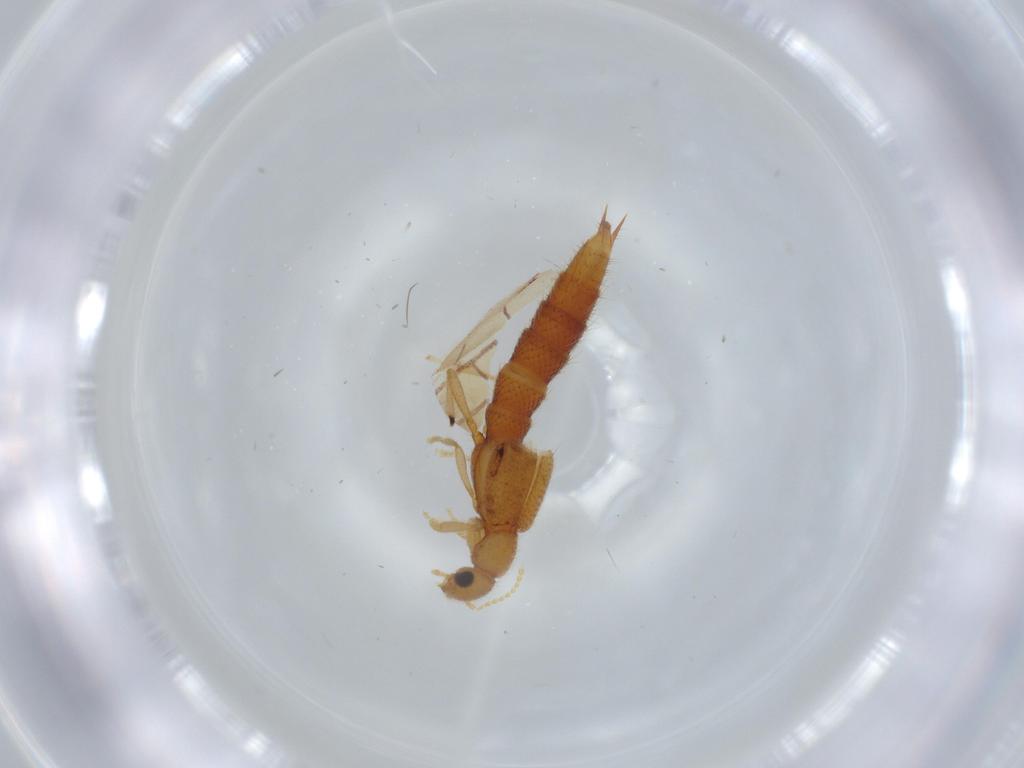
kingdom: Animalia
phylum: Arthropoda
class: Insecta
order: Coleoptera
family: Staphylinidae
